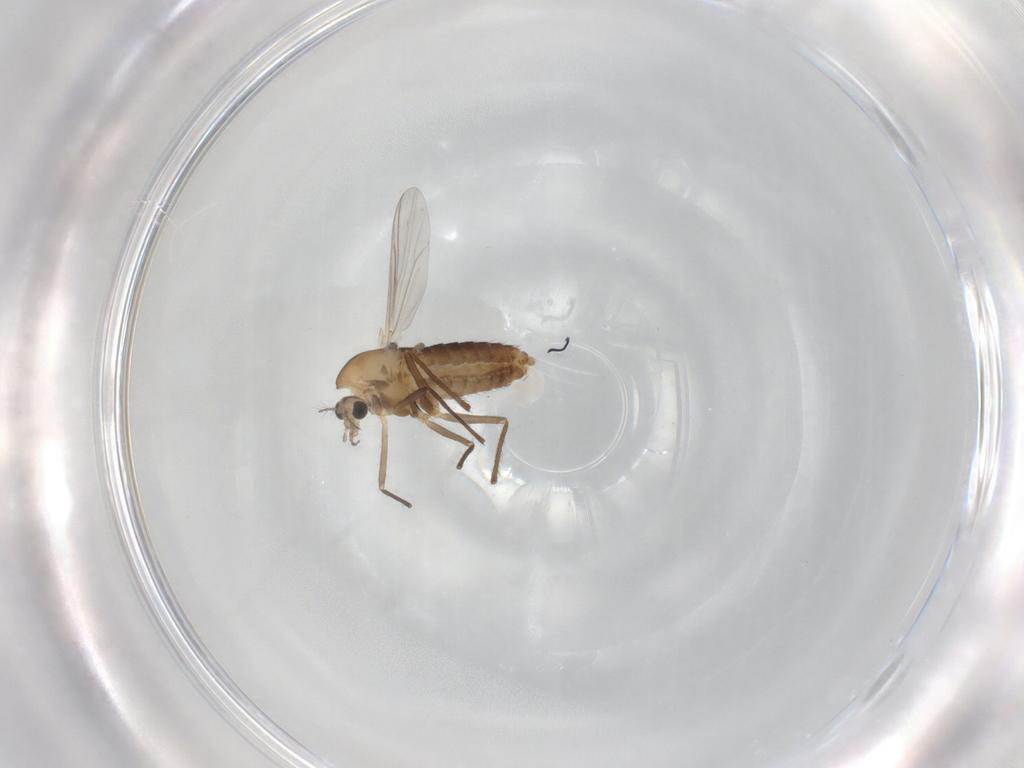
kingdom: Animalia
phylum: Arthropoda
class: Insecta
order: Diptera
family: Chironomidae
